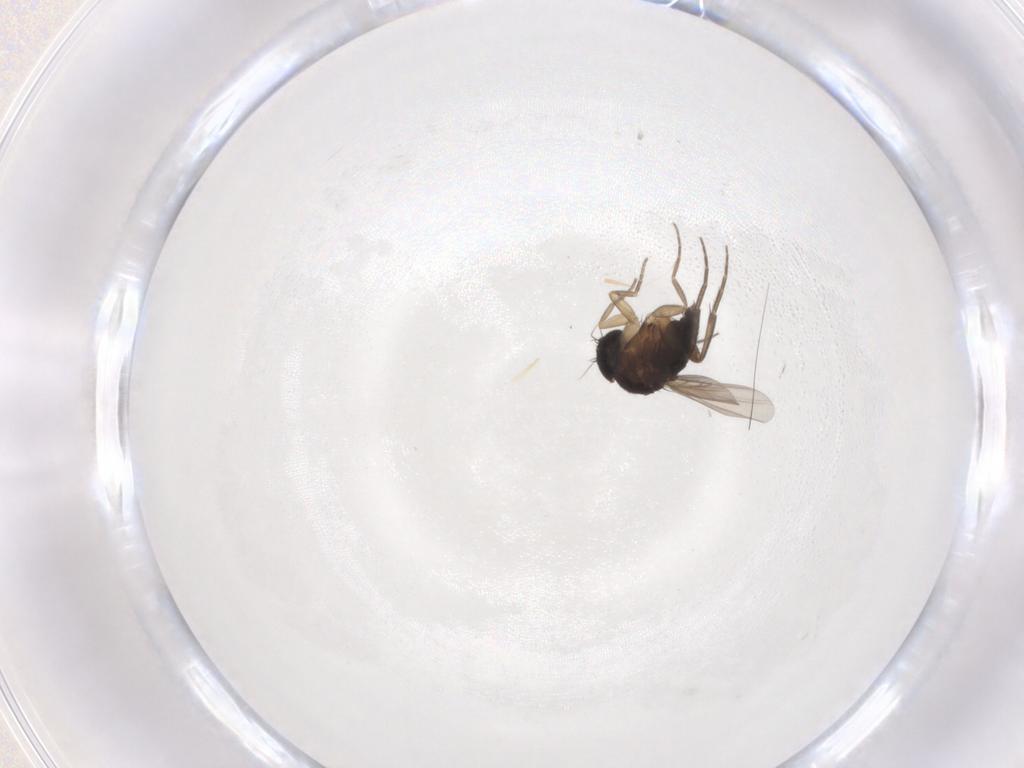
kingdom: Animalia
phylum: Arthropoda
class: Insecta
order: Diptera
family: Phoridae
